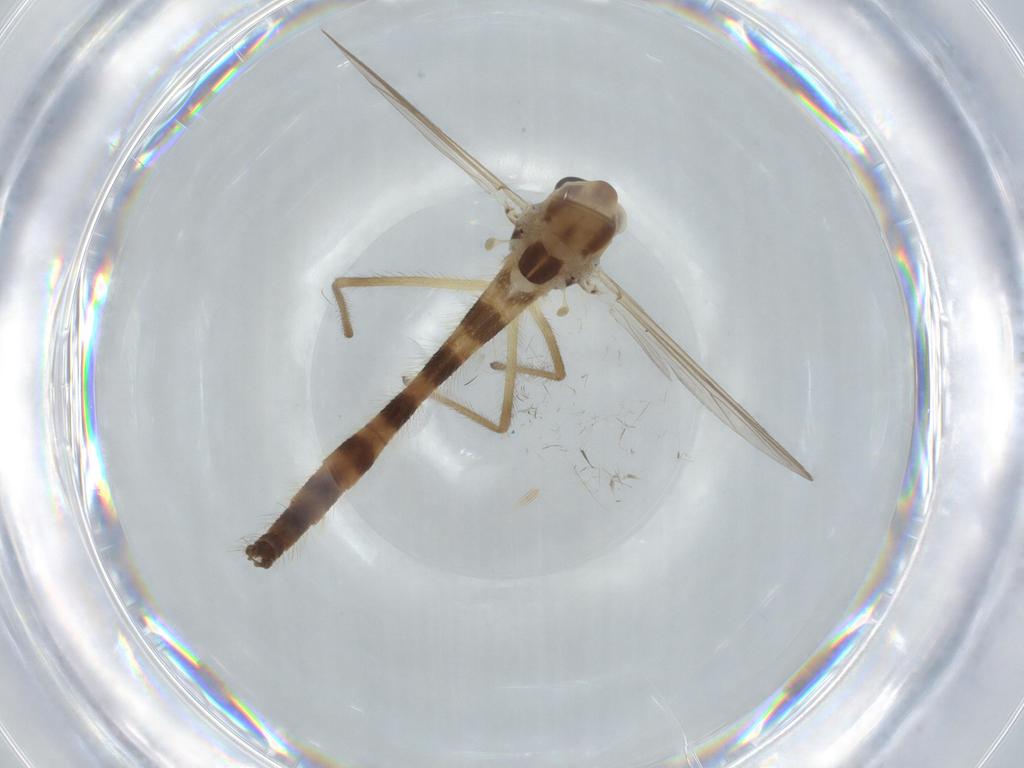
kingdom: Animalia
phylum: Arthropoda
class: Insecta
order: Diptera
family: Chironomidae
